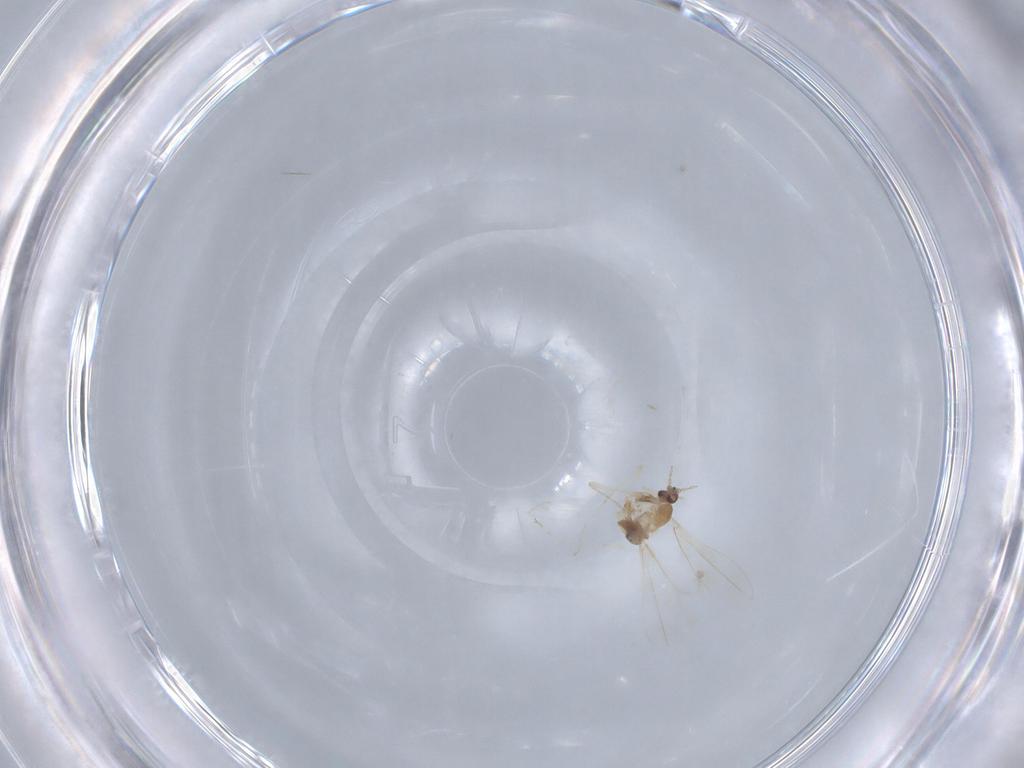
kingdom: Animalia
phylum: Arthropoda
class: Insecta
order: Diptera
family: Cecidomyiidae
